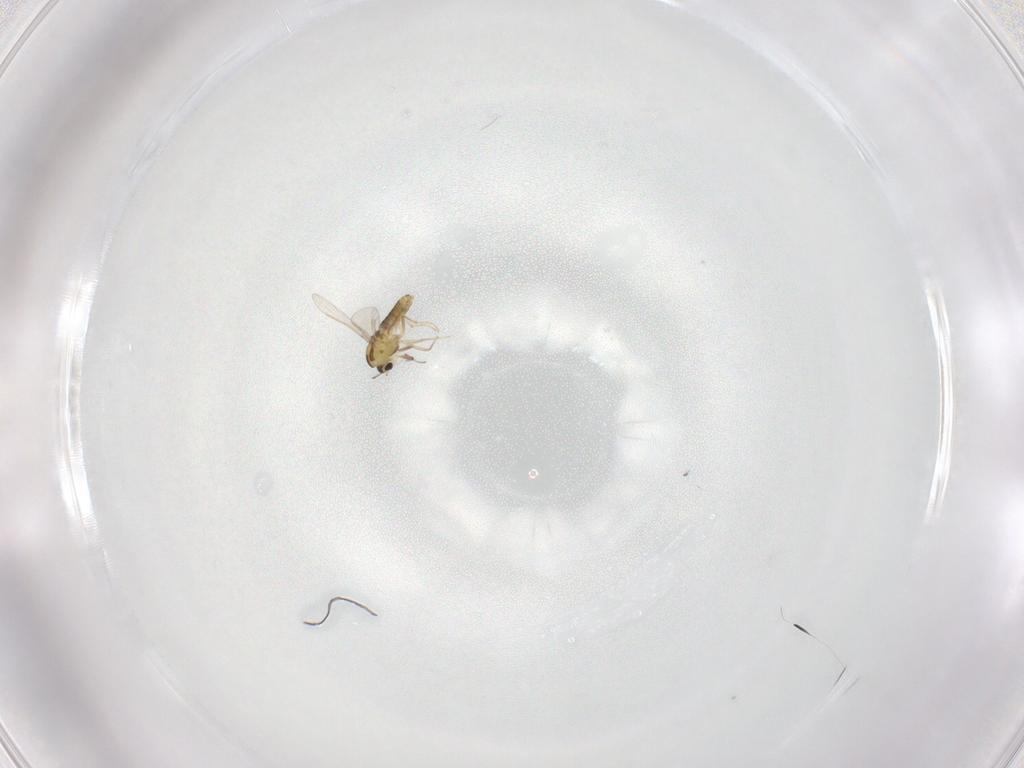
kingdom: Animalia
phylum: Arthropoda
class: Insecta
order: Diptera
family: Chironomidae
